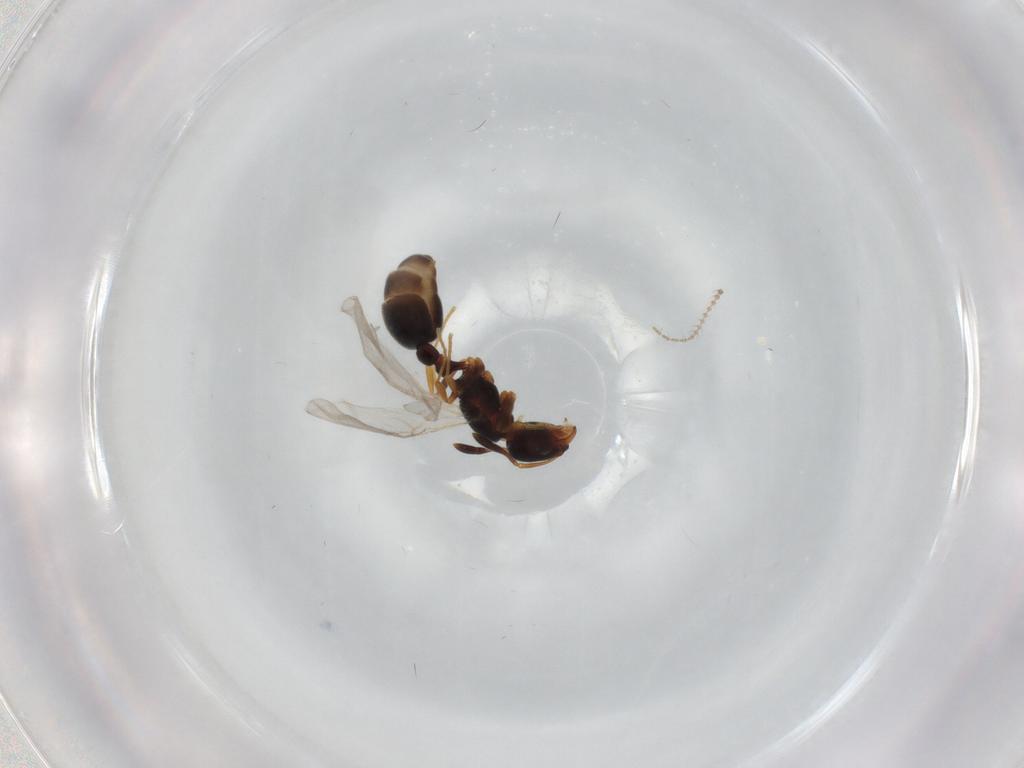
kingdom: Animalia
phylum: Arthropoda
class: Insecta
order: Hymenoptera
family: Formicidae
